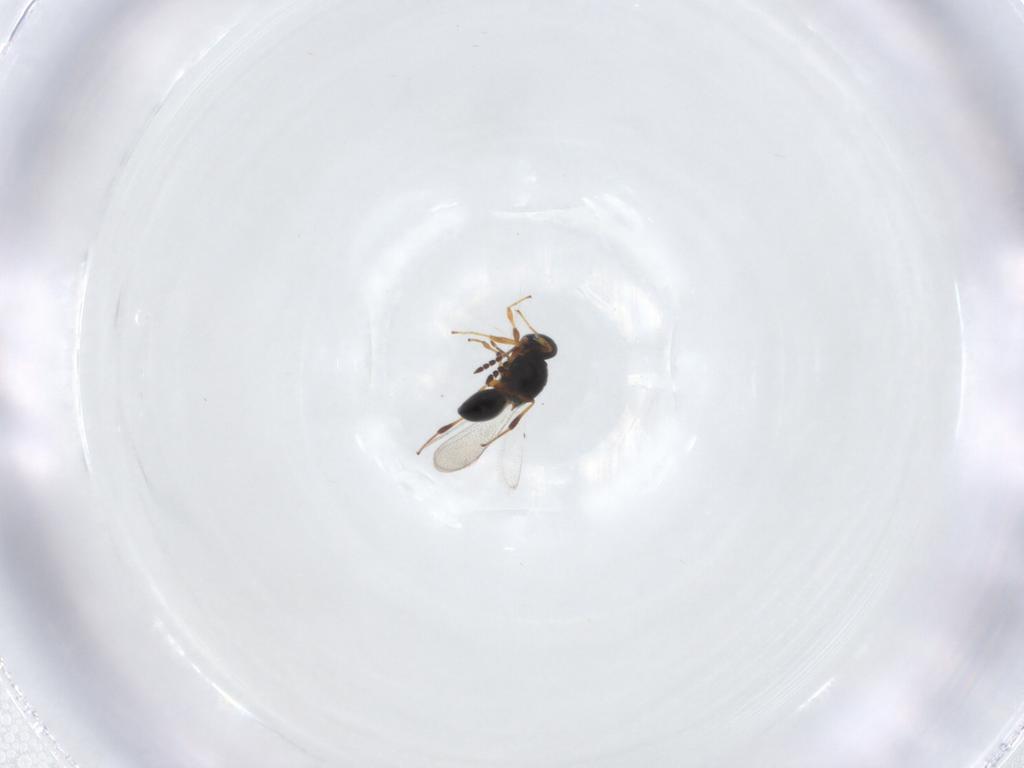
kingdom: Animalia
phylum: Arthropoda
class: Insecta
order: Hymenoptera
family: Platygastridae
